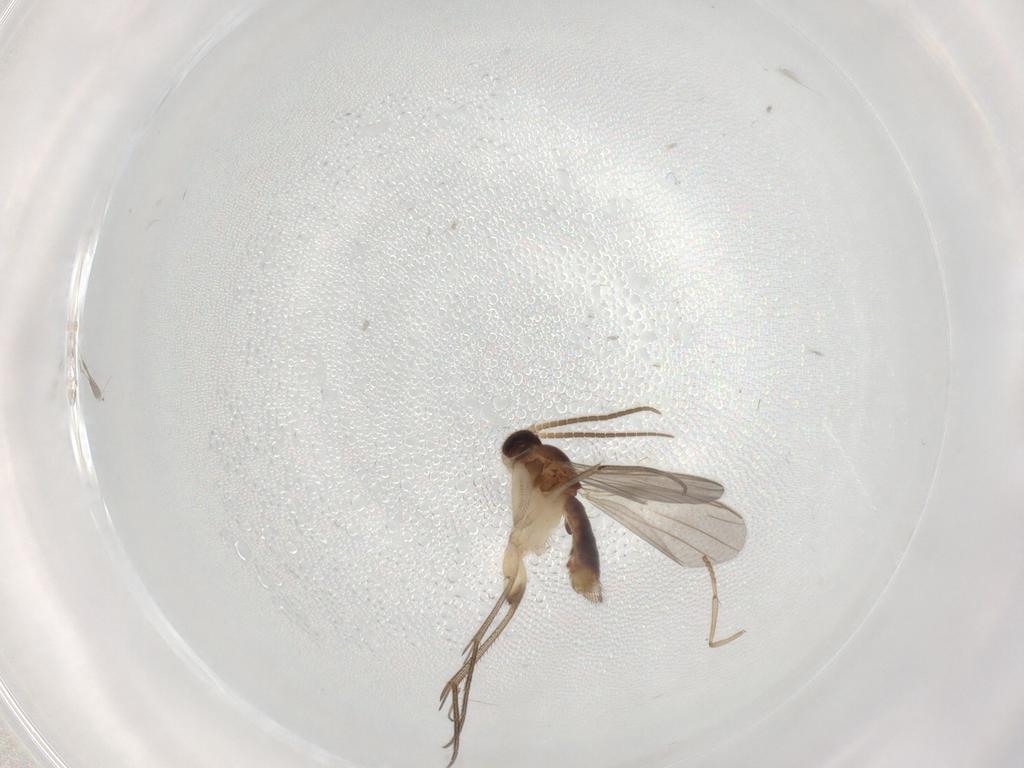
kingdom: Animalia
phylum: Arthropoda
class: Insecta
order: Diptera
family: Psychodidae
